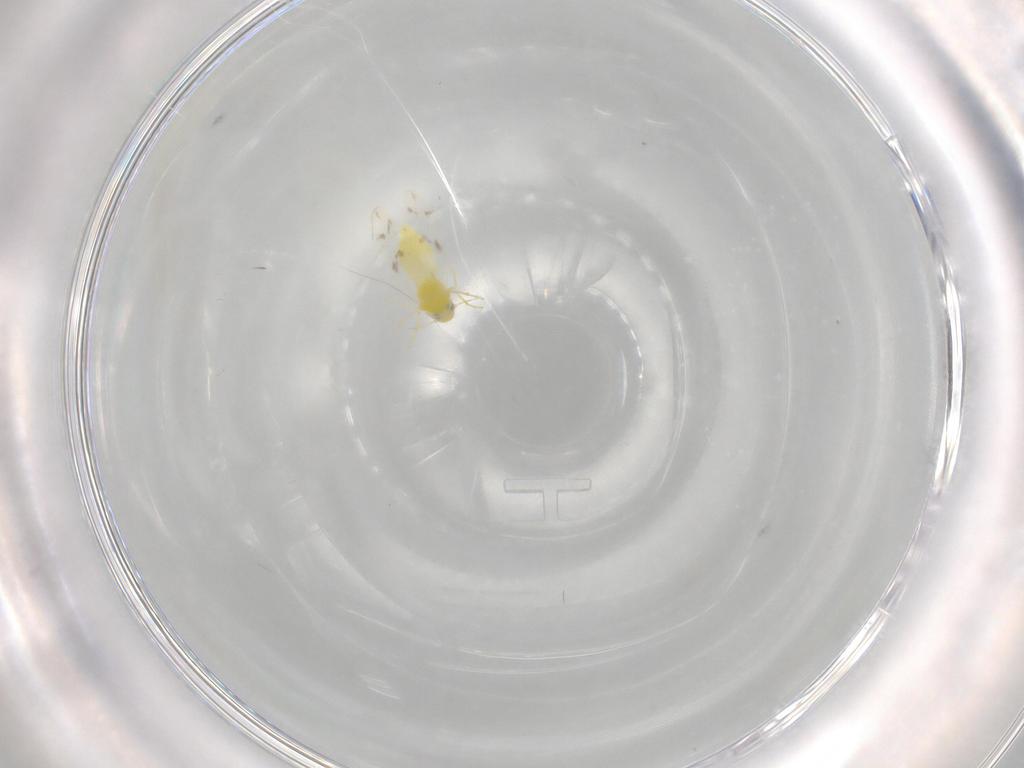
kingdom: Animalia
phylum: Arthropoda
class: Insecta
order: Hemiptera
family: Aleyrodidae
